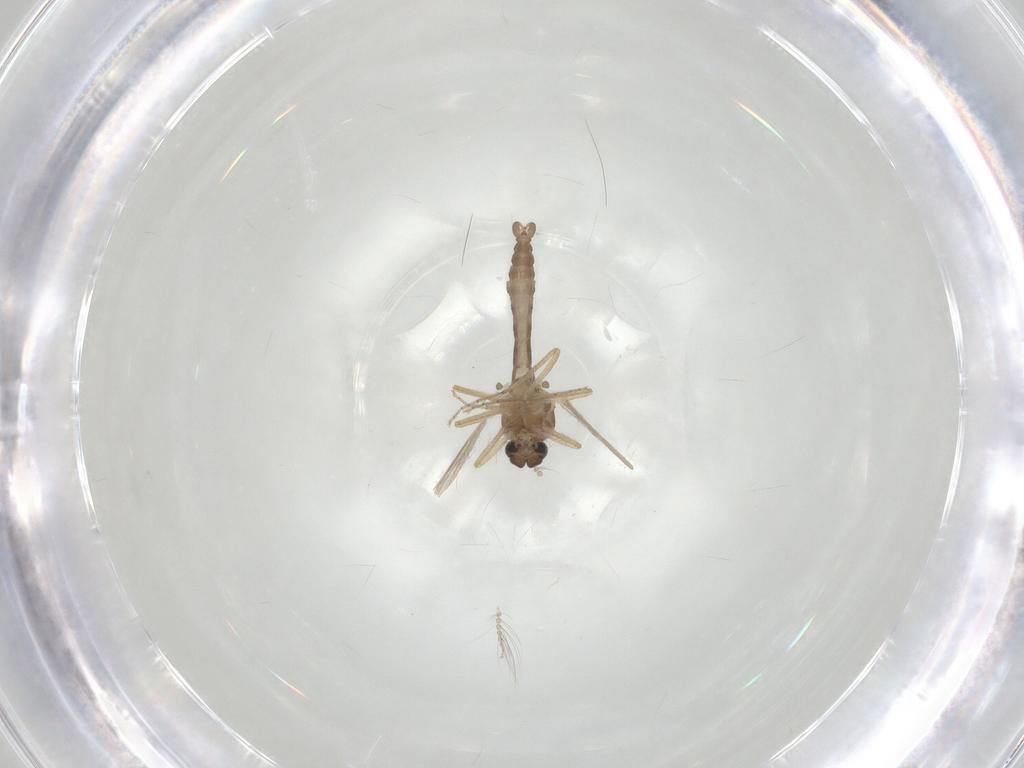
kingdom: Animalia
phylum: Arthropoda
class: Insecta
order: Diptera
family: Ceratopogonidae
